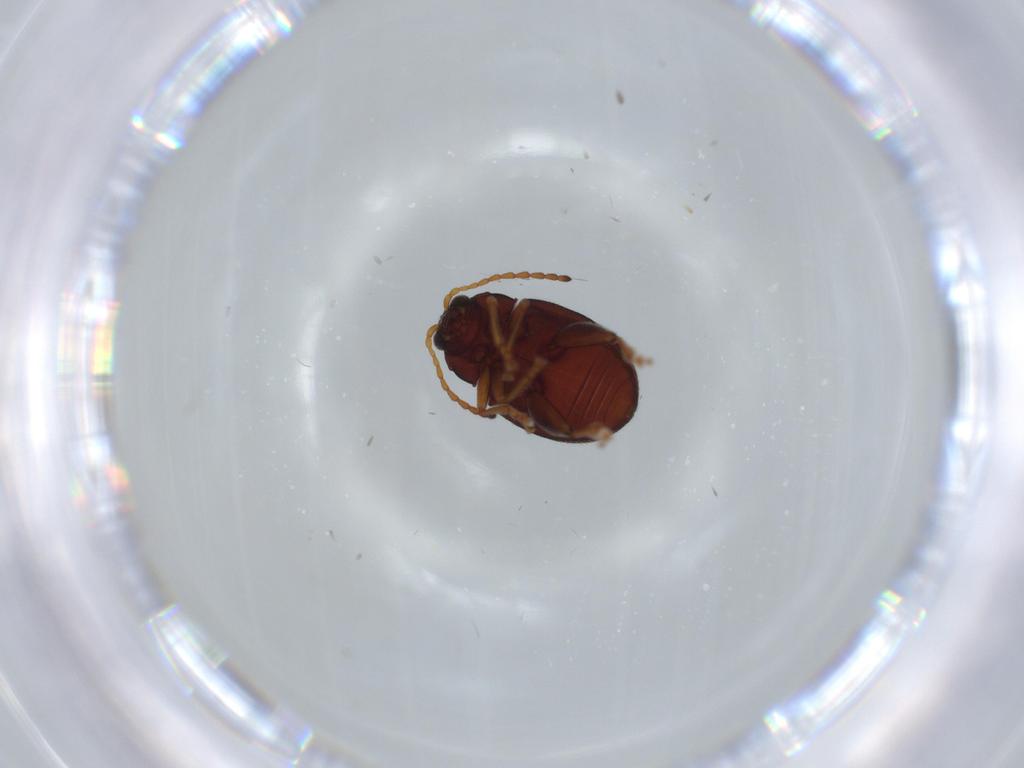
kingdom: Animalia
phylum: Arthropoda
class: Insecta
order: Coleoptera
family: Chrysomelidae
